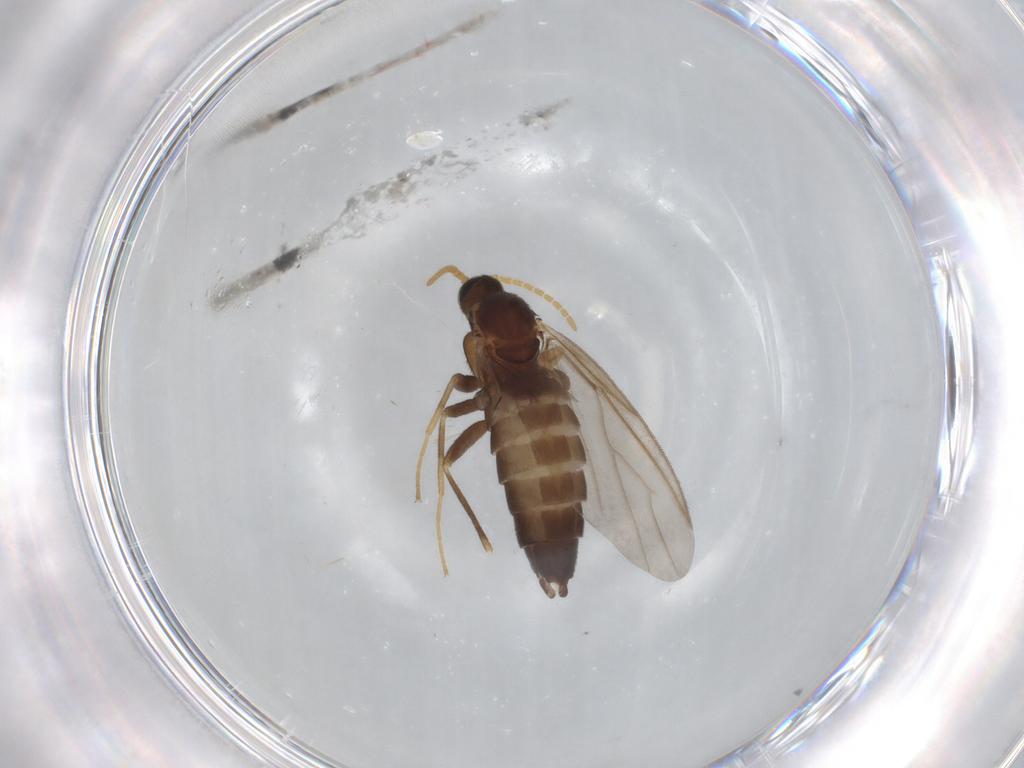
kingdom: Animalia
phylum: Arthropoda
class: Insecta
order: Diptera
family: Scatopsidae
